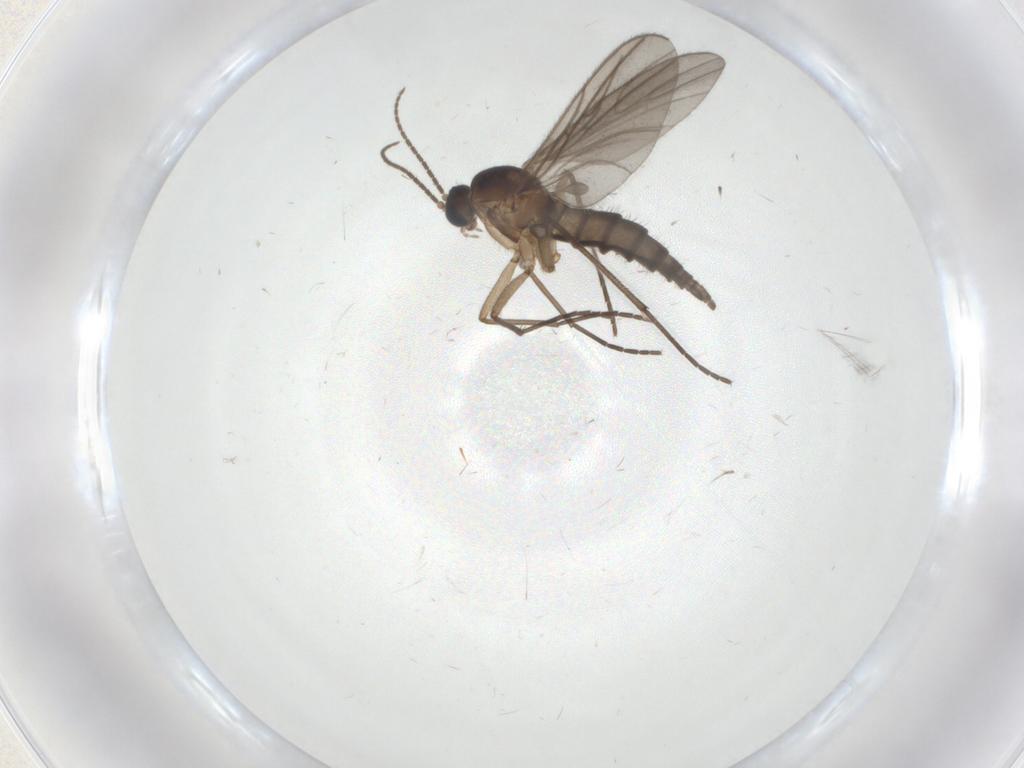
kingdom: Animalia
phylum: Arthropoda
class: Insecta
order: Diptera
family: Chironomidae
